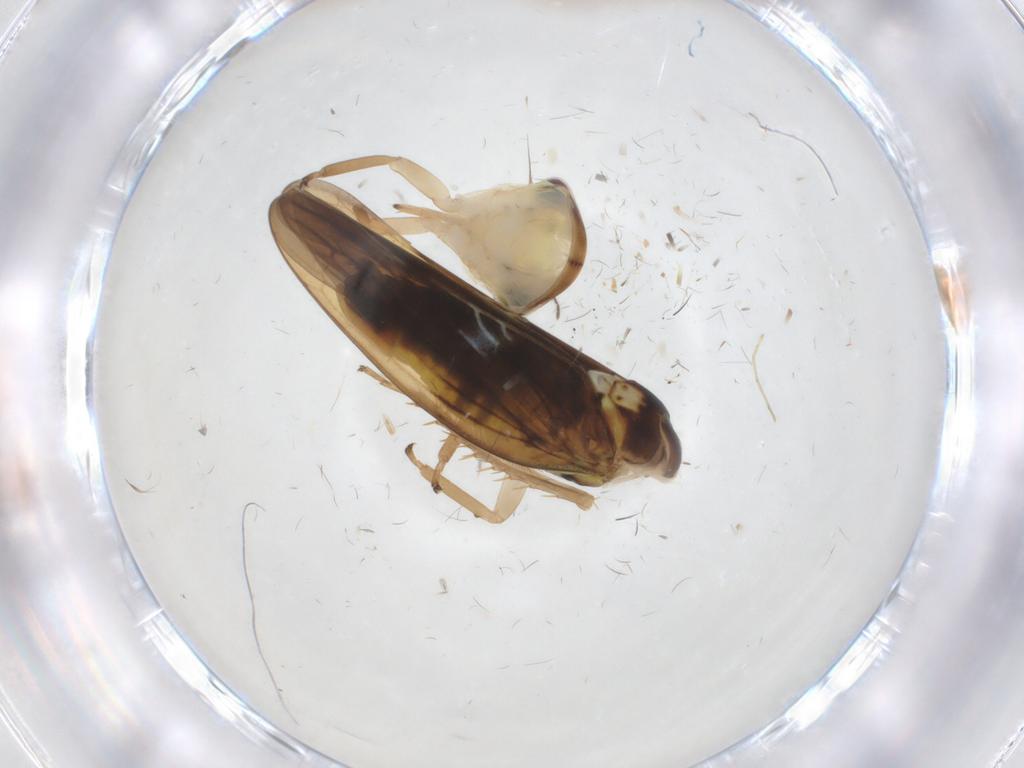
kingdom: Animalia
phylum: Arthropoda
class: Insecta
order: Hemiptera
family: Cicadellidae
